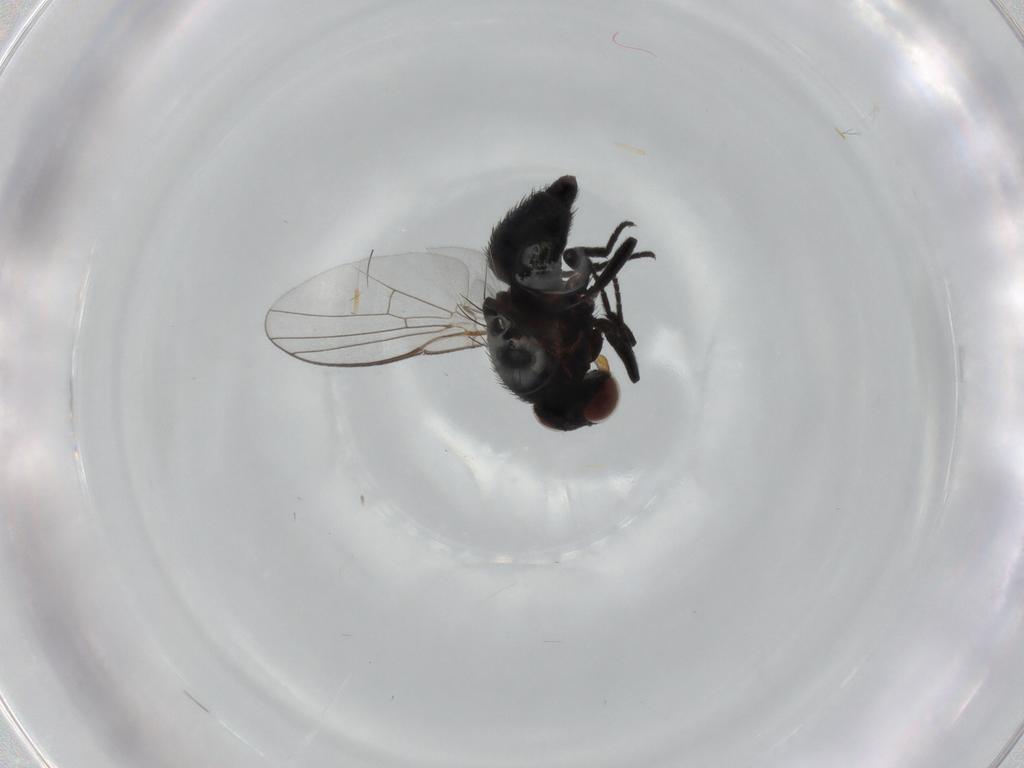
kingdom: Animalia
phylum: Arthropoda
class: Insecta
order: Diptera
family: Agromyzidae
